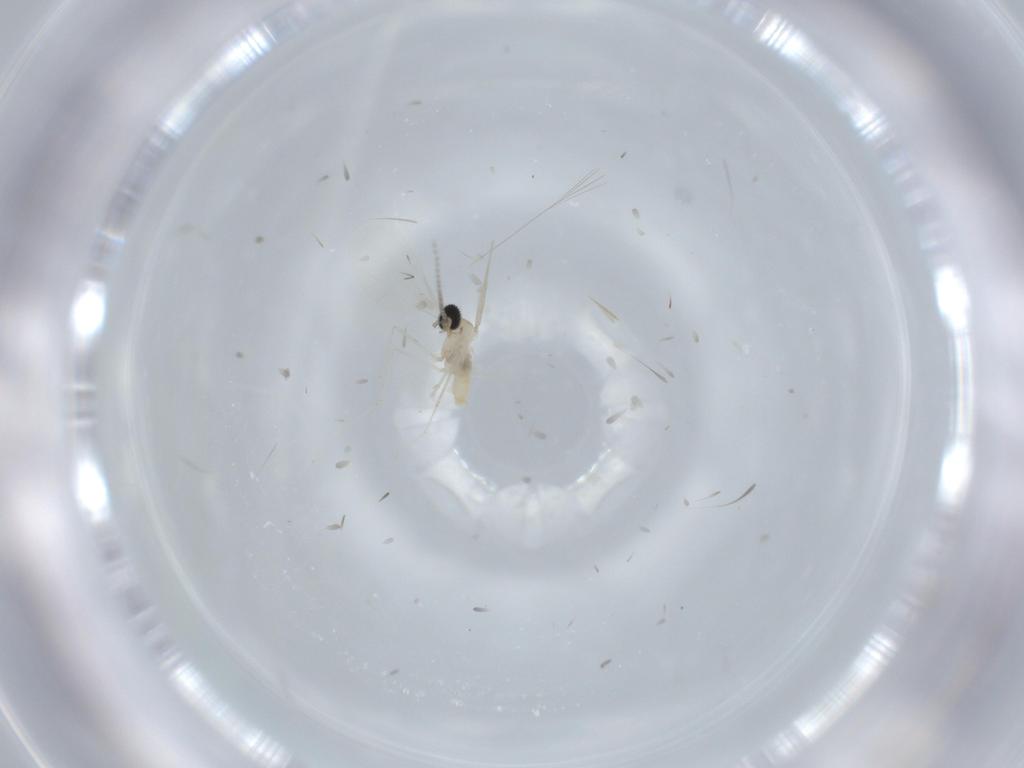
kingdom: Animalia
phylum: Arthropoda
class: Insecta
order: Diptera
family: Cecidomyiidae
